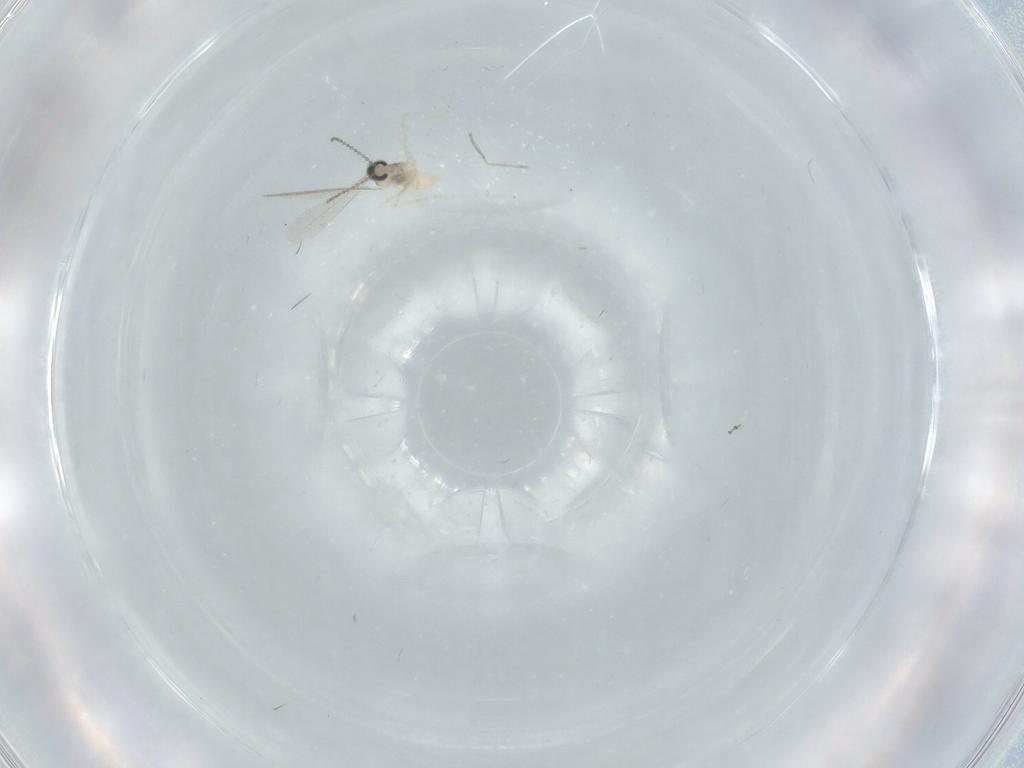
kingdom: Animalia
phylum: Arthropoda
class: Insecta
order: Diptera
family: Cecidomyiidae
